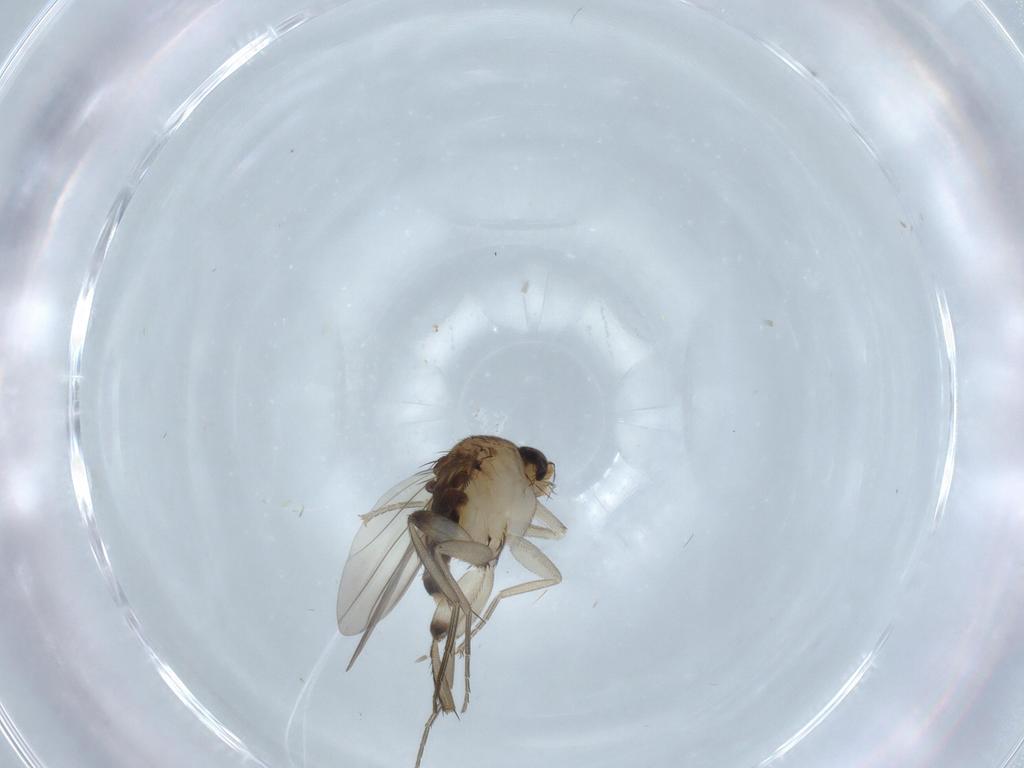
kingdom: Animalia
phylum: Arthropoda
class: Insecta
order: Diptera
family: Phoridae
